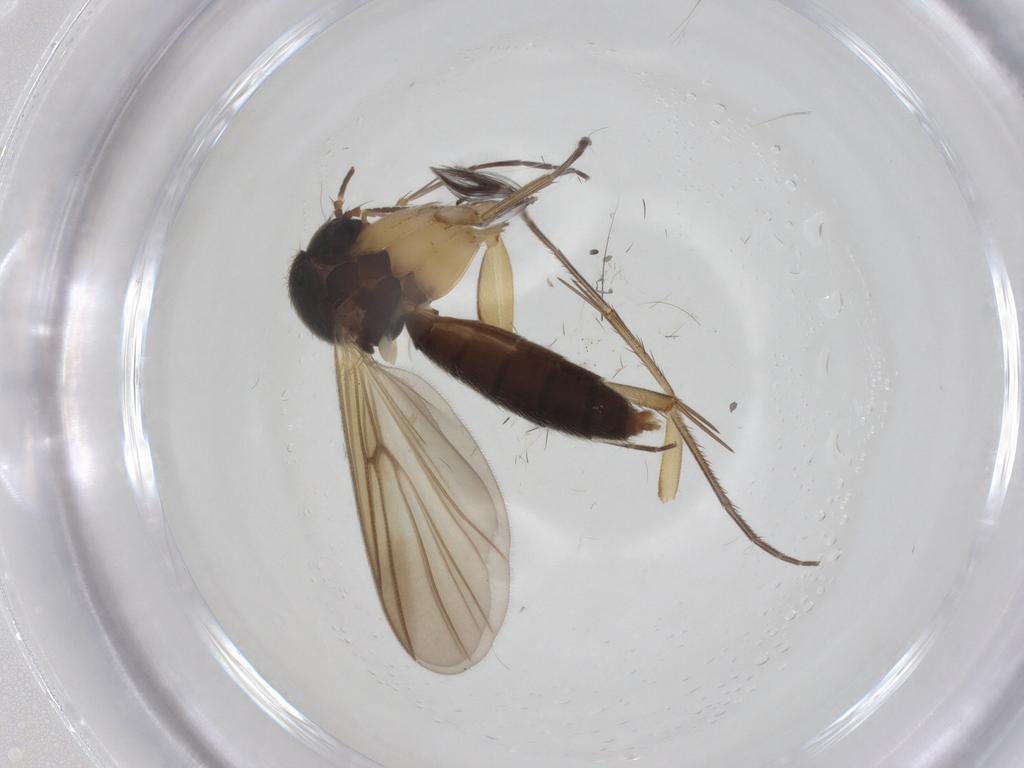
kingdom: Animalia
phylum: Arthropoda
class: Insecta
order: Diptera
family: Ceratopogonidae
